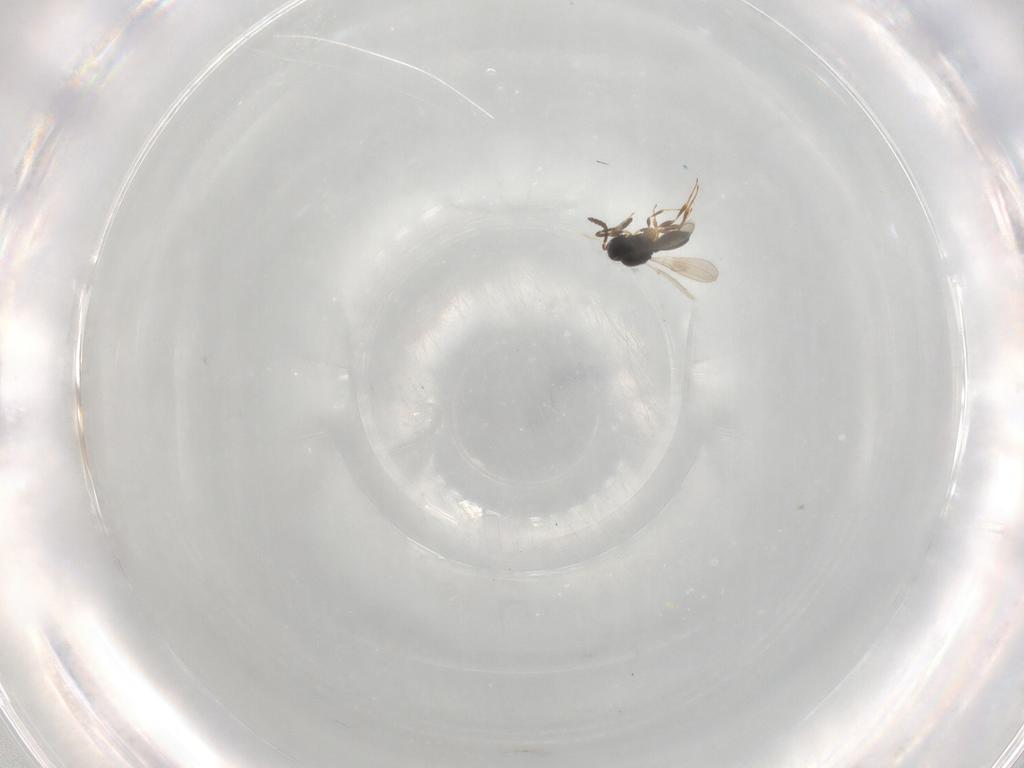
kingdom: Animalia
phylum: Arthropoda
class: Insecta
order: Hymenoptera
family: Scelionidae
